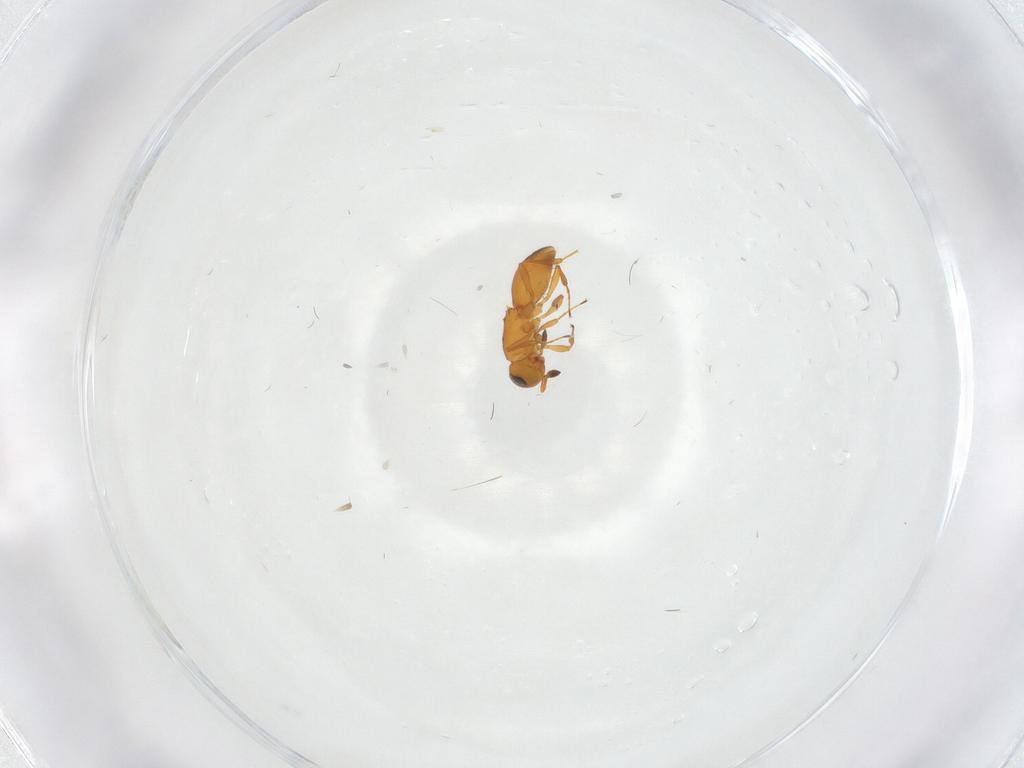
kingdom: Animalia
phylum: Arthropoda
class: Insecta
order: Hymenoptera
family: Platygastridae
